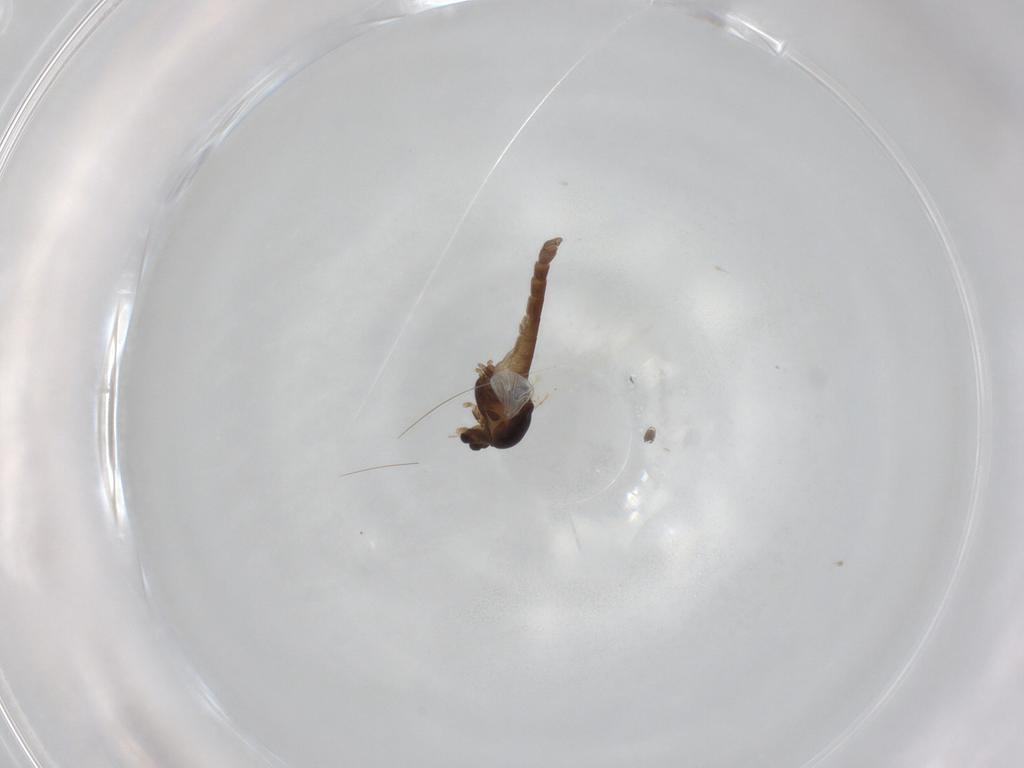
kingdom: Animalia
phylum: Arthropoda
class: Insecta
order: Diptera
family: Chironomidae
